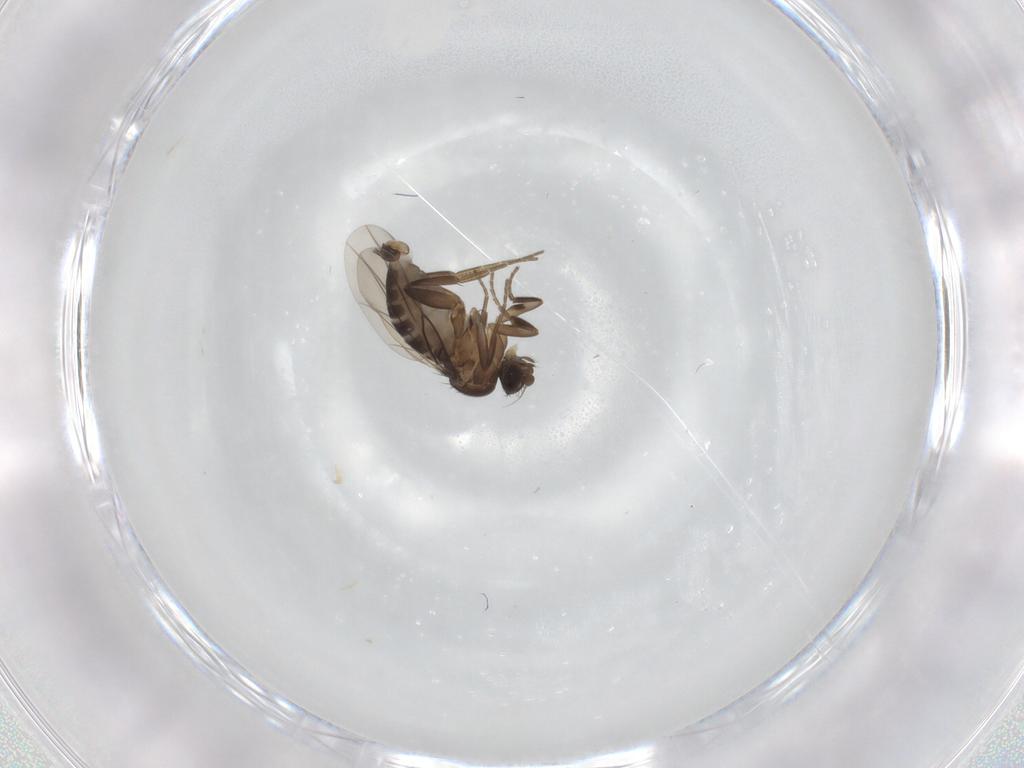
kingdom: Animalia
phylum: Arthropoda
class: Insecta
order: Diptera
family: Phoridae
